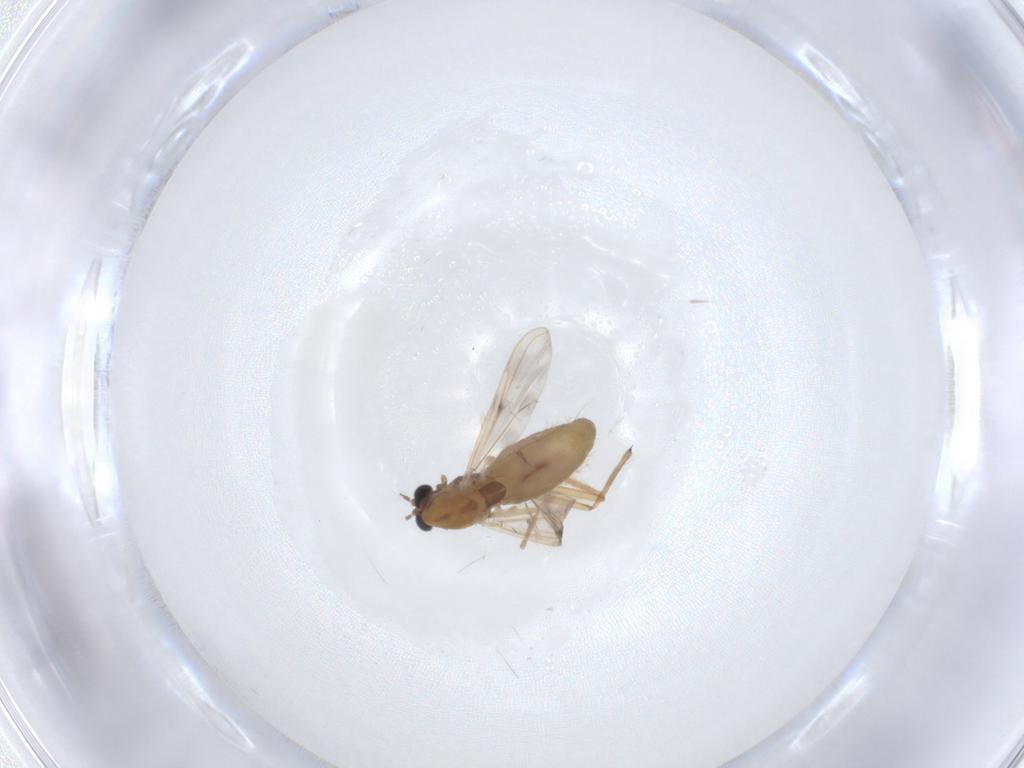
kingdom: Animalia
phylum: Arthropoda
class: Insecta
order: Diptera
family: Chironomidae
